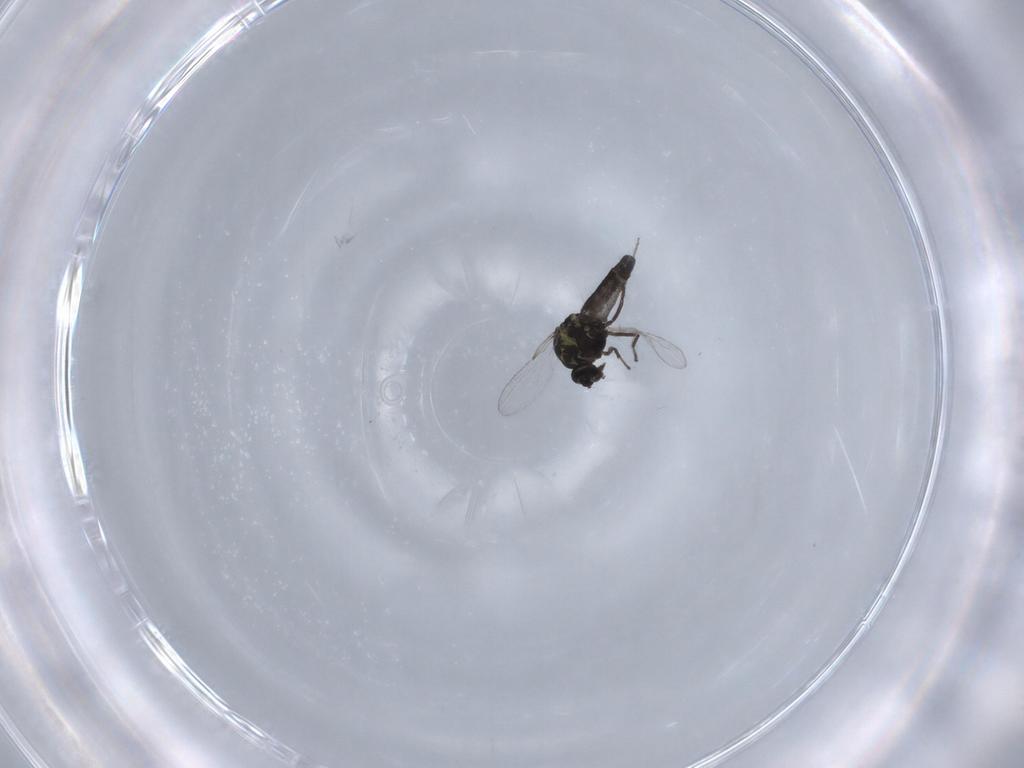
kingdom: Animalia
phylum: Arthropoda
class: Insecta
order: Diptera
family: Ceratopogonidae
